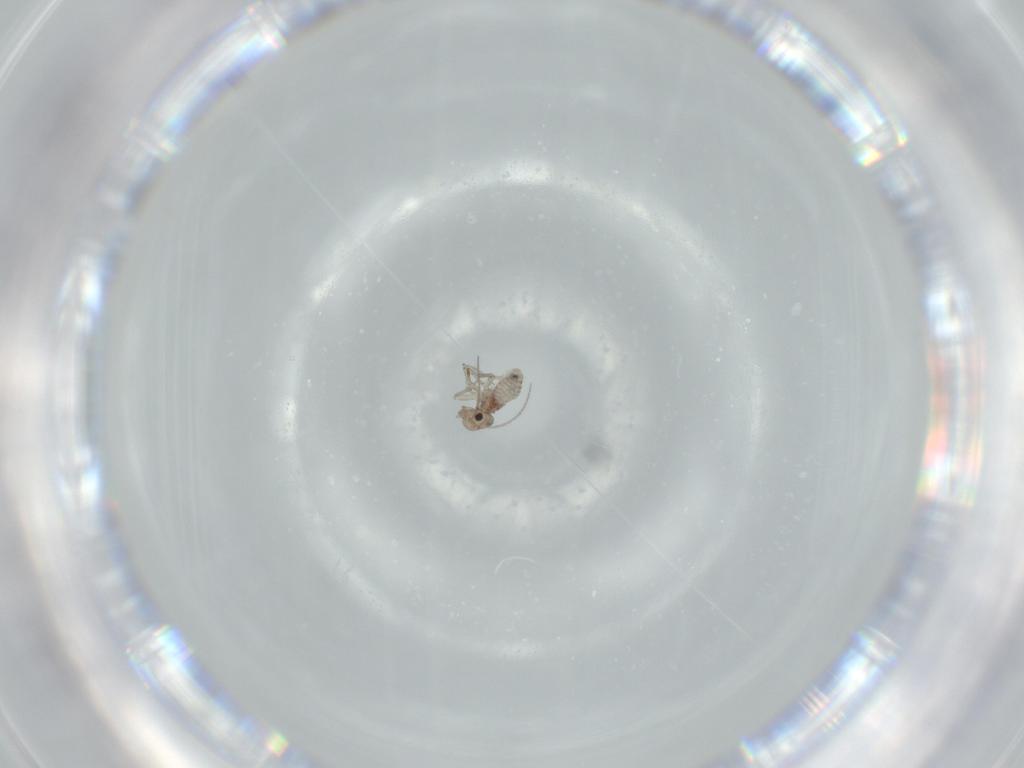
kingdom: Animalia
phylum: Arthropoda
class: Insecta
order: Psocodea
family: Lachesillidae
